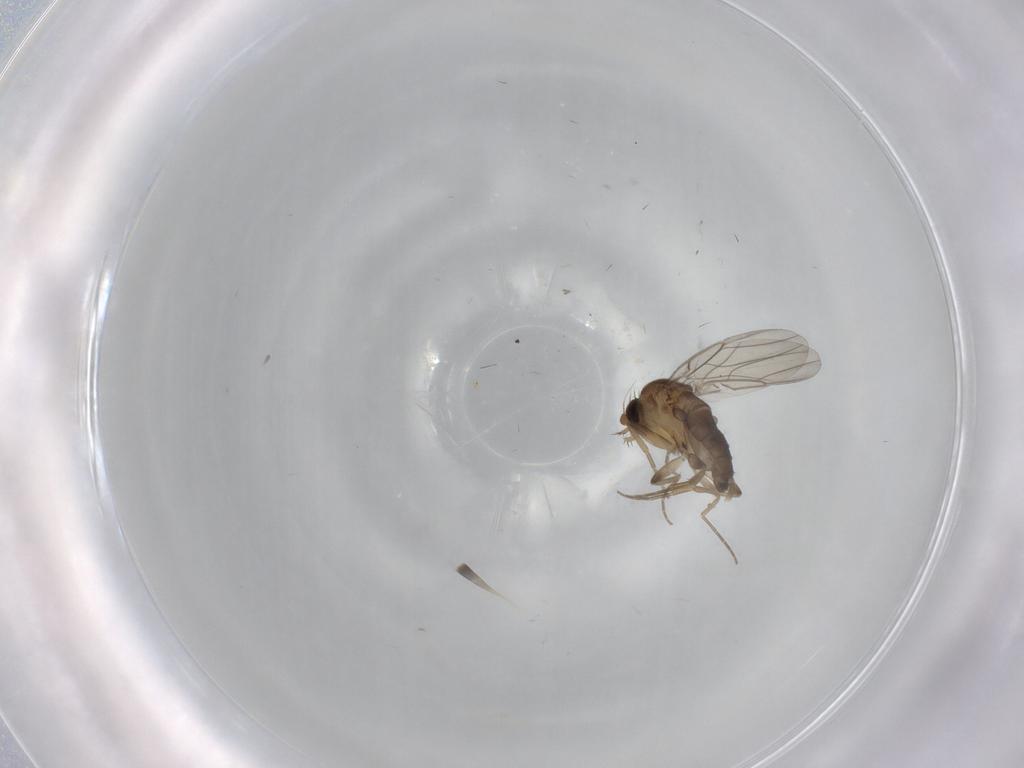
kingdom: Animalia
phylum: Arthropoda
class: Insecta
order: Diptera
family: Phoridae
